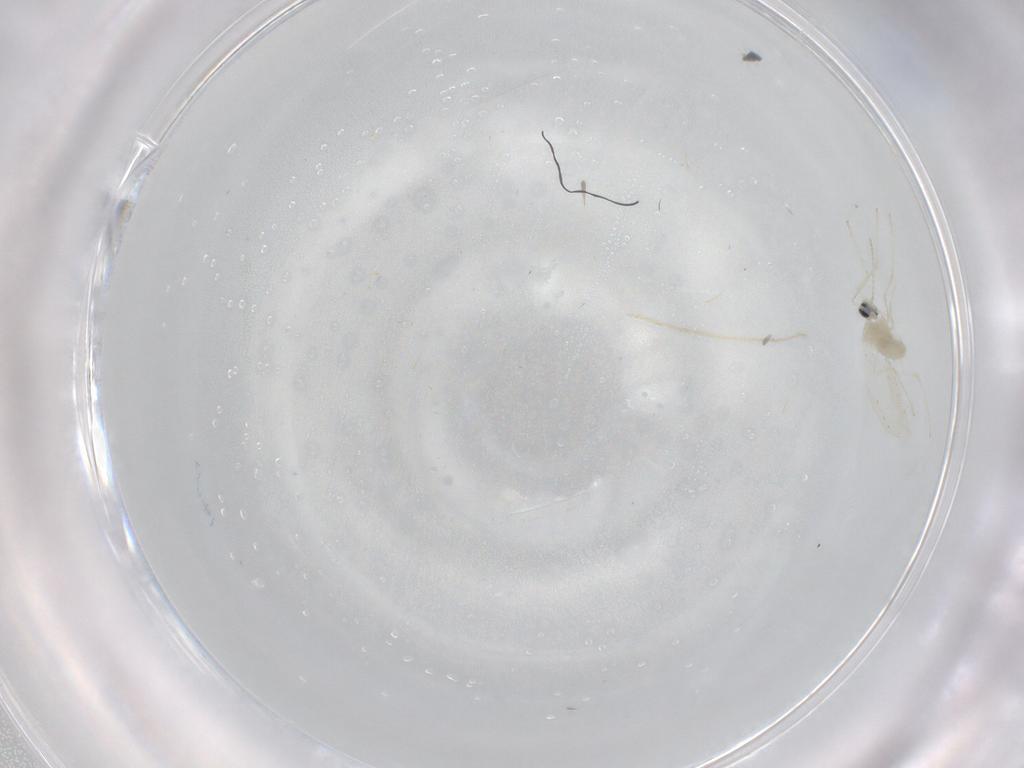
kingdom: Animalia
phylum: Arthropoda
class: Insecta
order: Diptera
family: Cecidomyiidae
